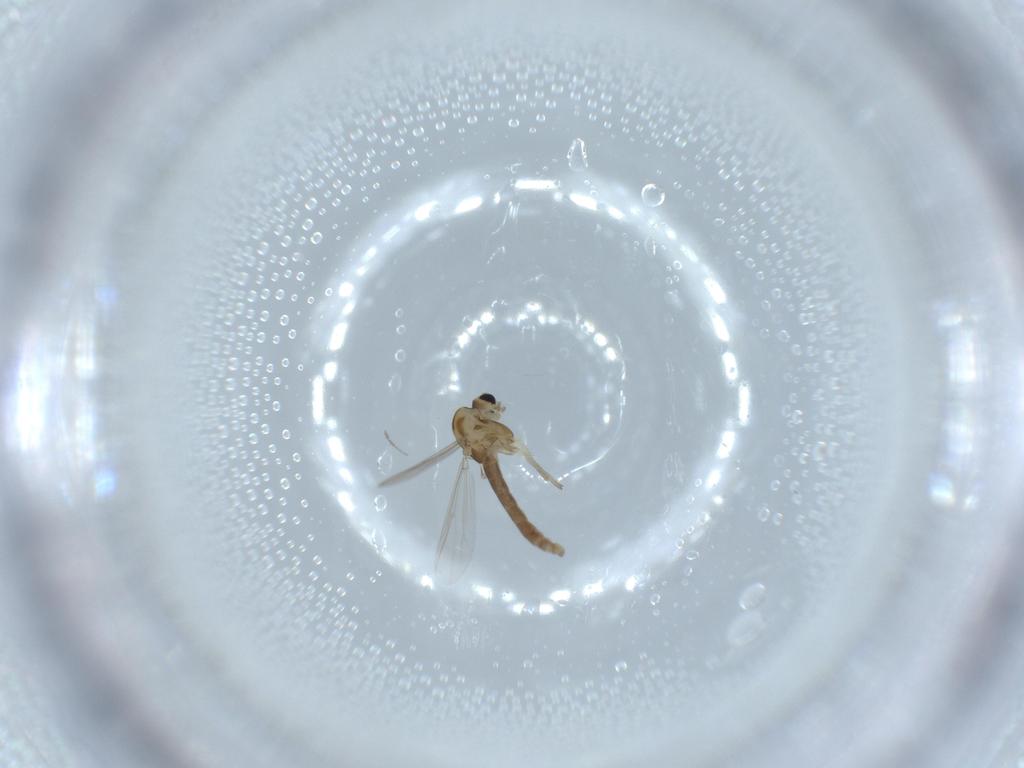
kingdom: Animalia
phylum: Arthropoda
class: Insecta
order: Diptera
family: Chironomidae
